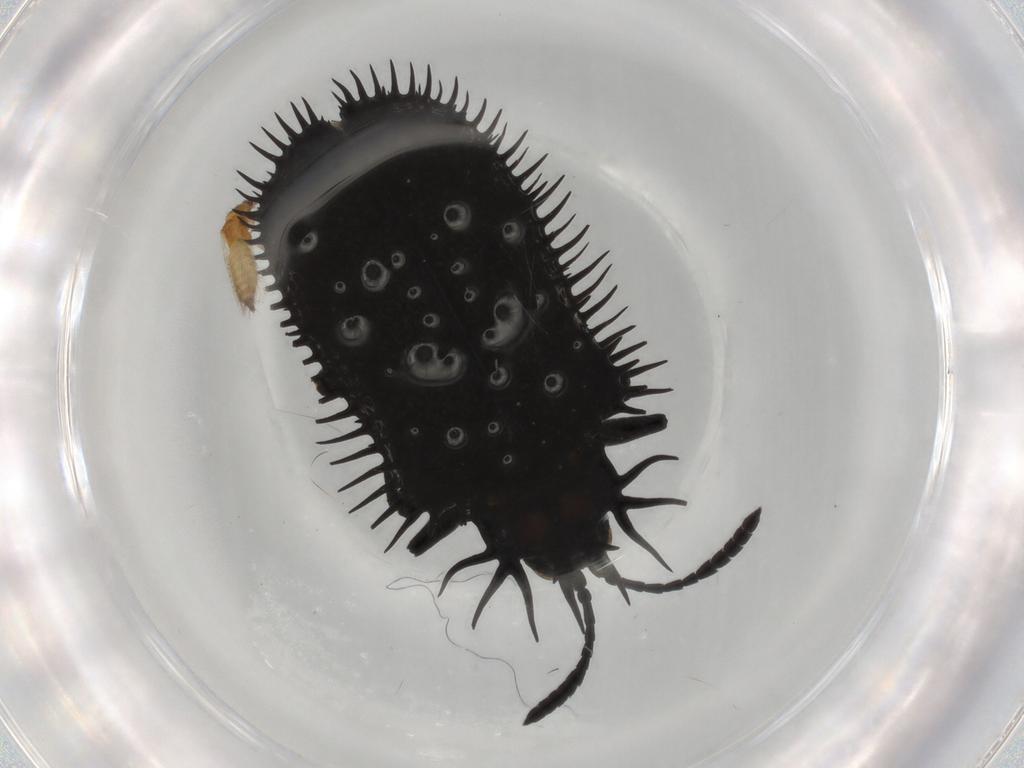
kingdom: Animalia
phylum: Arthropoda
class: Insecta
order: Coleoptera
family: Chrysomelidae
